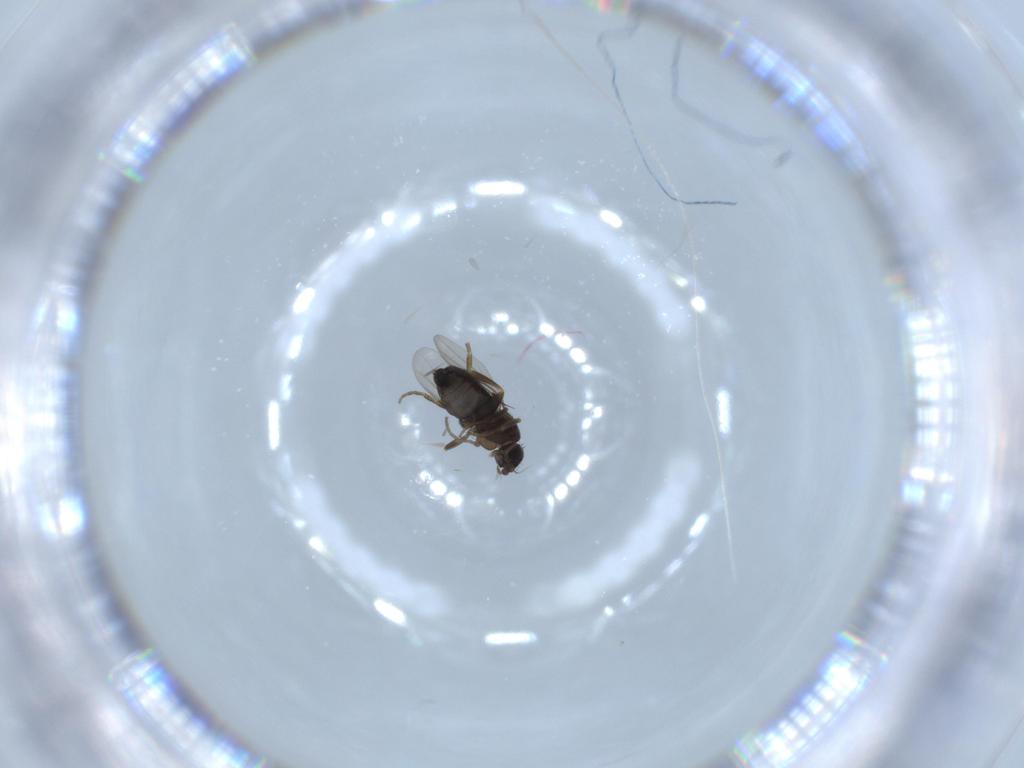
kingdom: Animalia
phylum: Arthropoda
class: Insecta
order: Diptera
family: Phoridae
